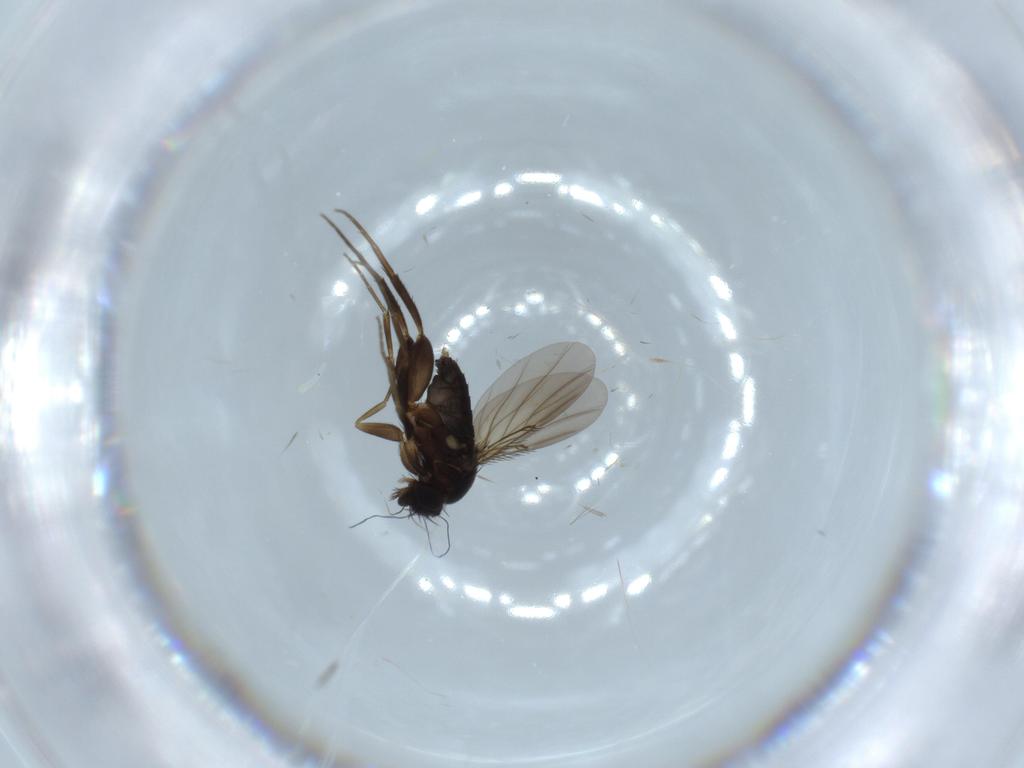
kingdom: Animalia
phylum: Arthropoda
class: Insecta
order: Diptera
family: Phoridae
